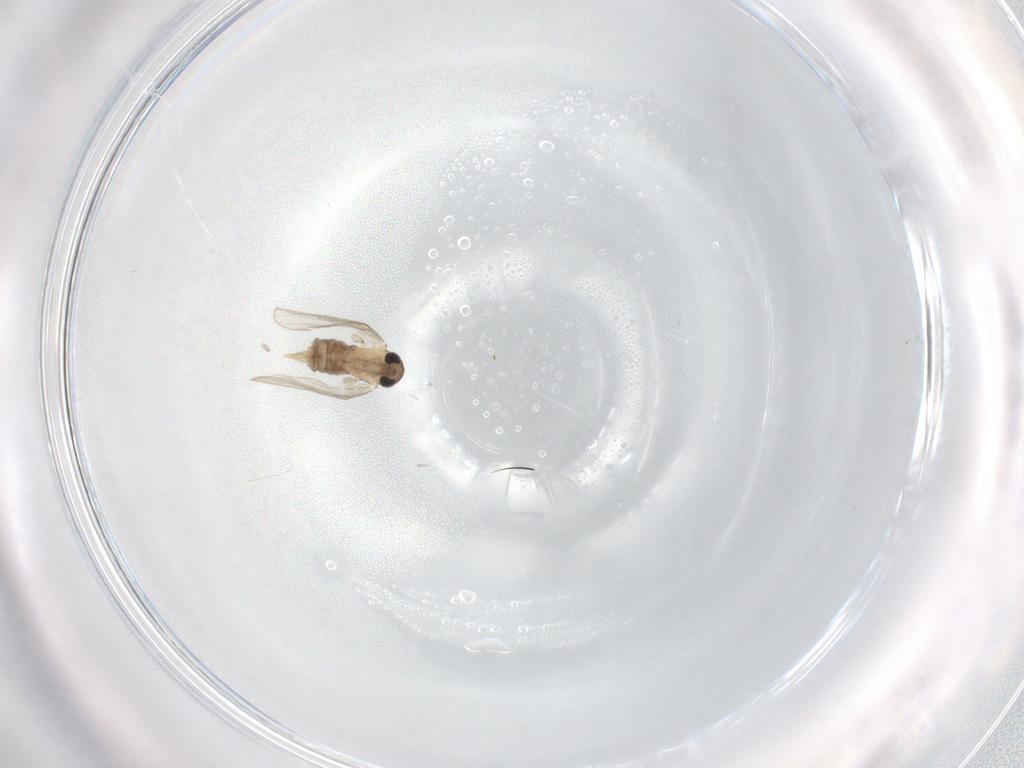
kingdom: Animalia
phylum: Arthropoda
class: Insecta
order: Diptera
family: Psychodidae
